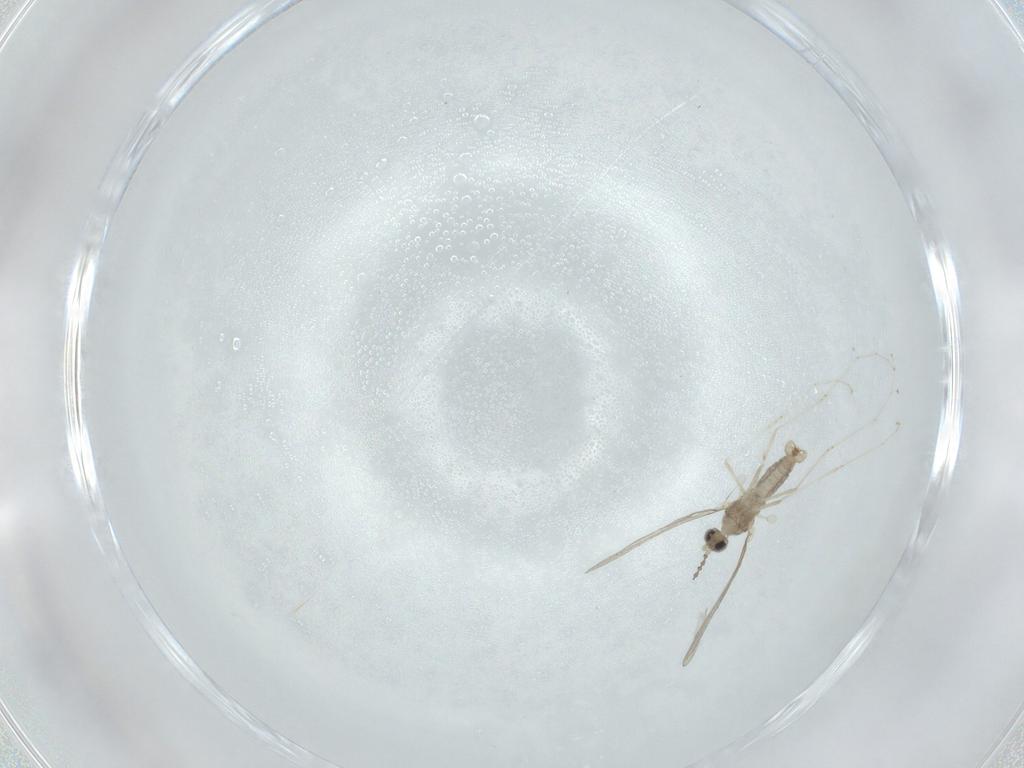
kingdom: Animalia
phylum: Arthropoda
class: Insecta
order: Diptera
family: Cecidomyiidae
